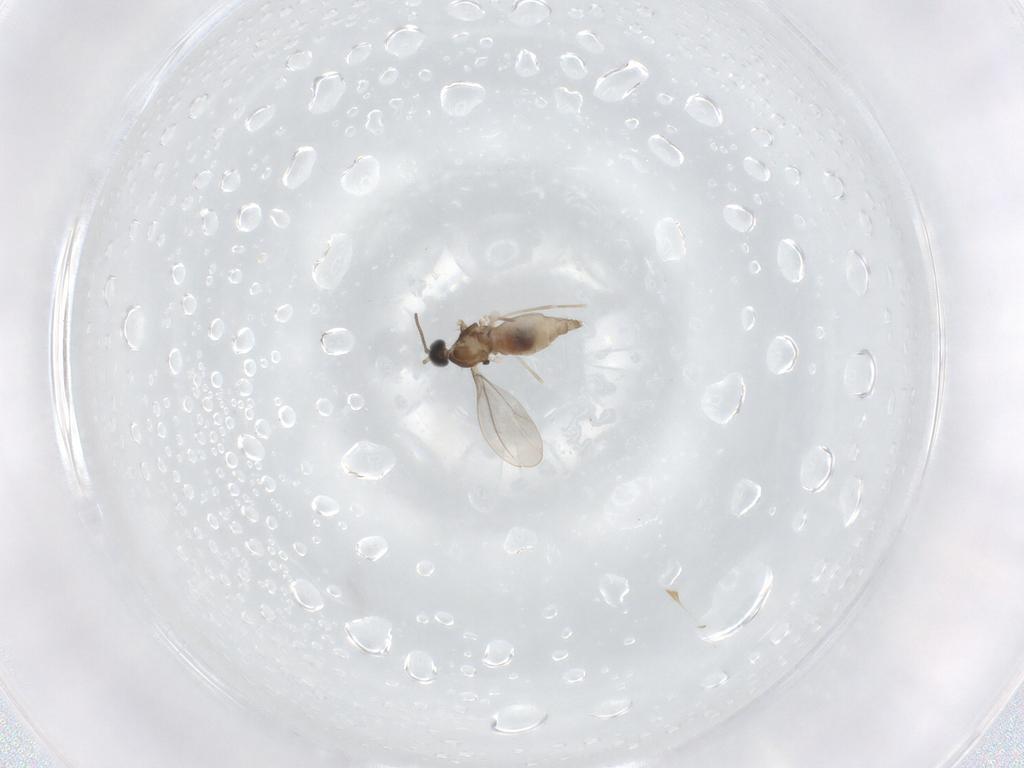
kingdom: Animalia
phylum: Arthropoda
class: Insecta
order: Diptera
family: Cecidomyiidae
